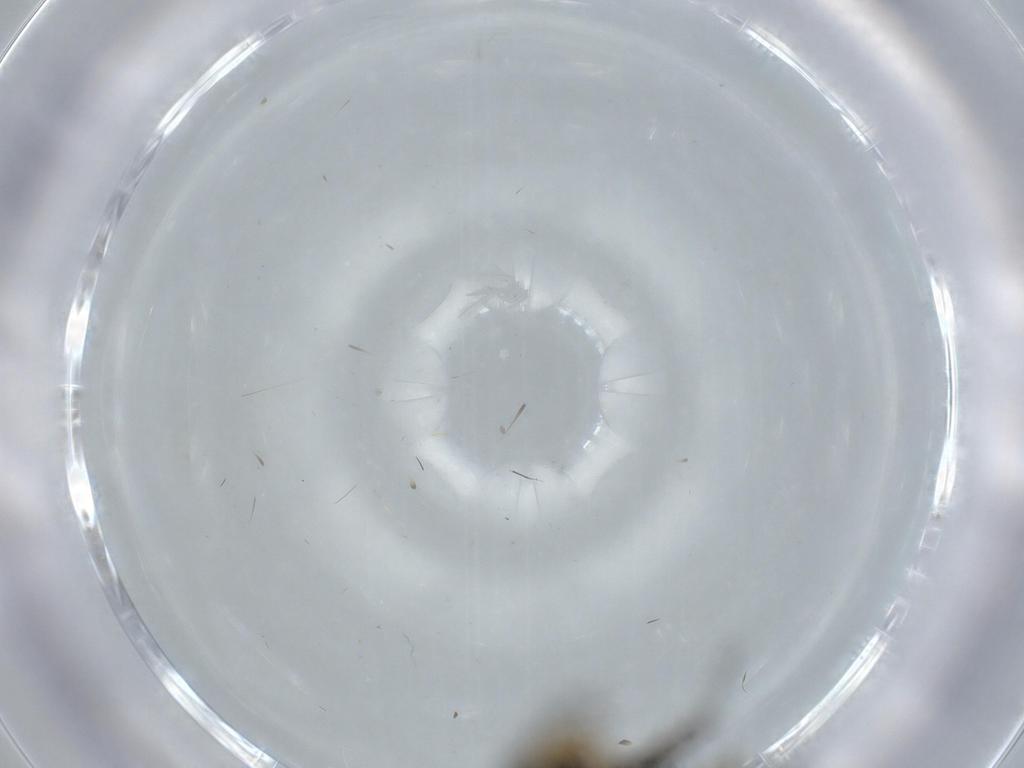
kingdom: Animalia
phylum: Arthropoda
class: Insecta
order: Diptera
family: Sciaridae
